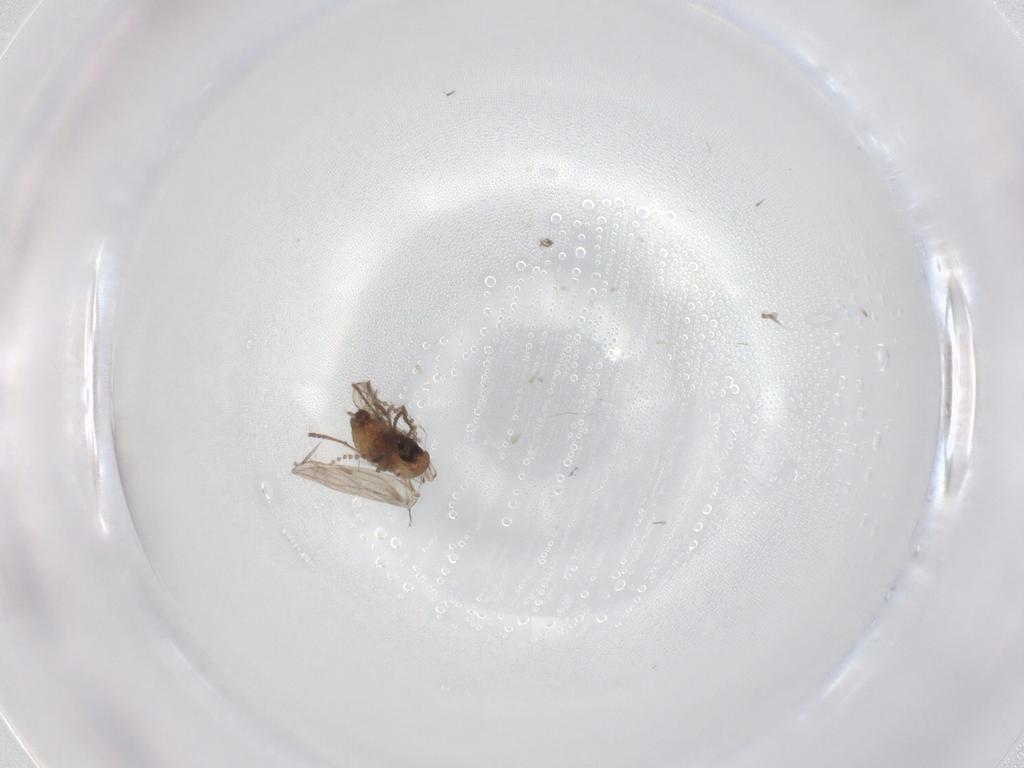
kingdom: Animalia
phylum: Arthropoda
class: Insecta
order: Diptera
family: Psychodidae
